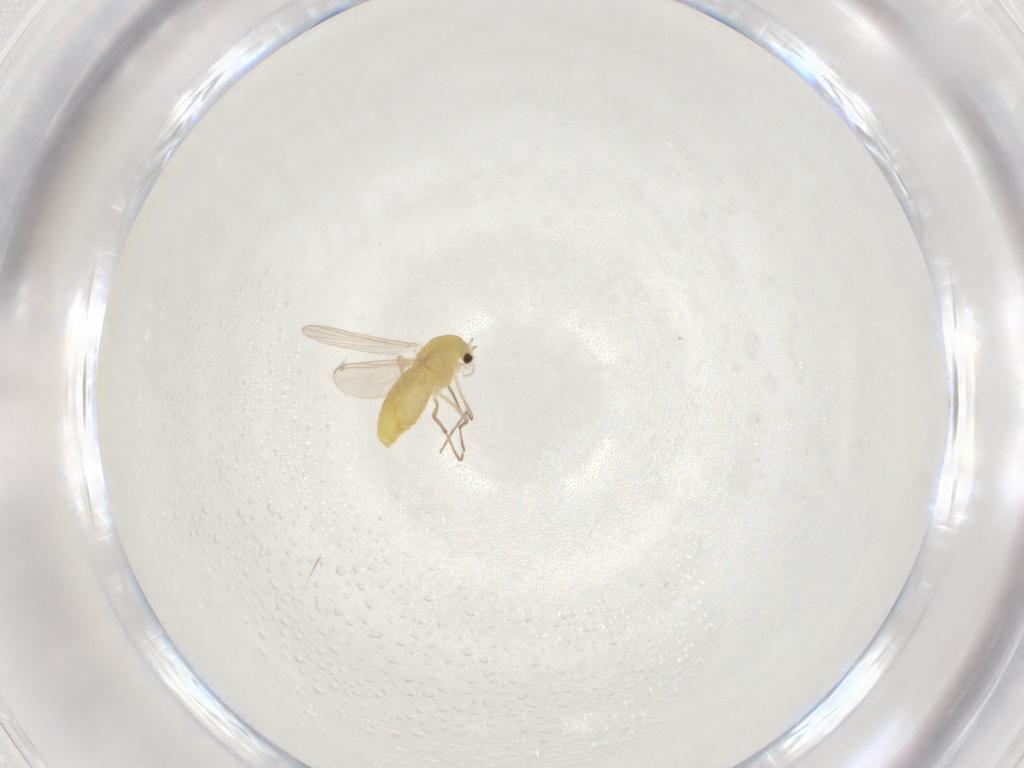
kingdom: Animalia
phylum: Arthropoda
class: Insecta
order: Diptera
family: Chironomidae
